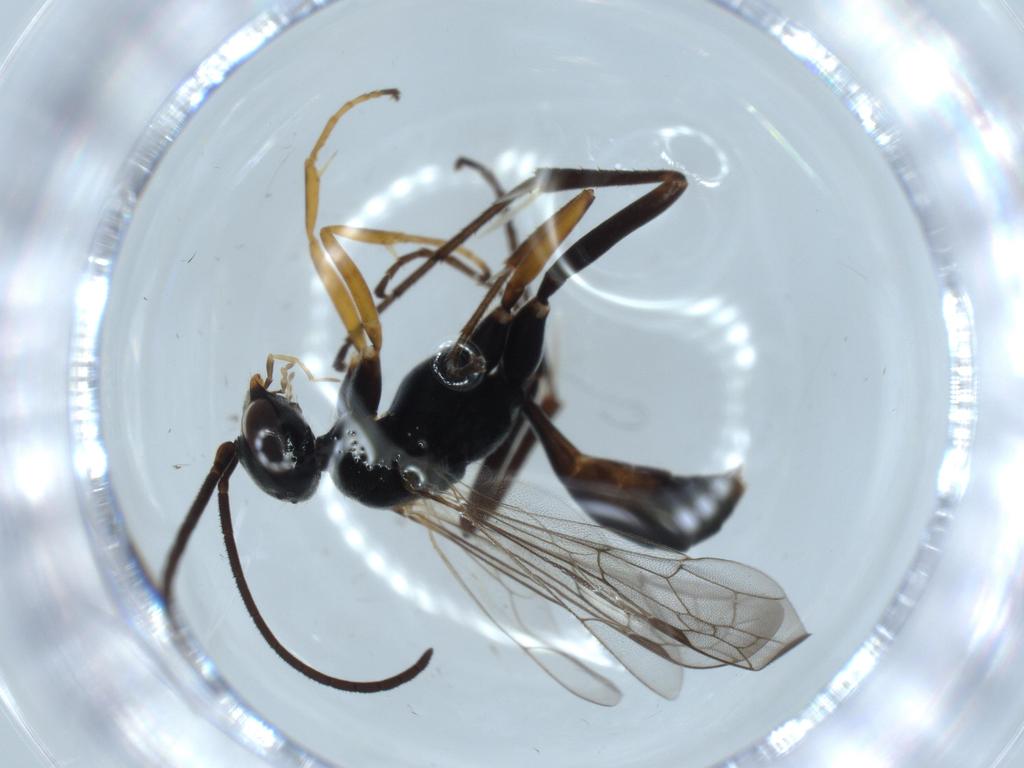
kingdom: Animalia
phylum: Arthropoda
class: Insecta
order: Hymenoptera
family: Pompilidae
